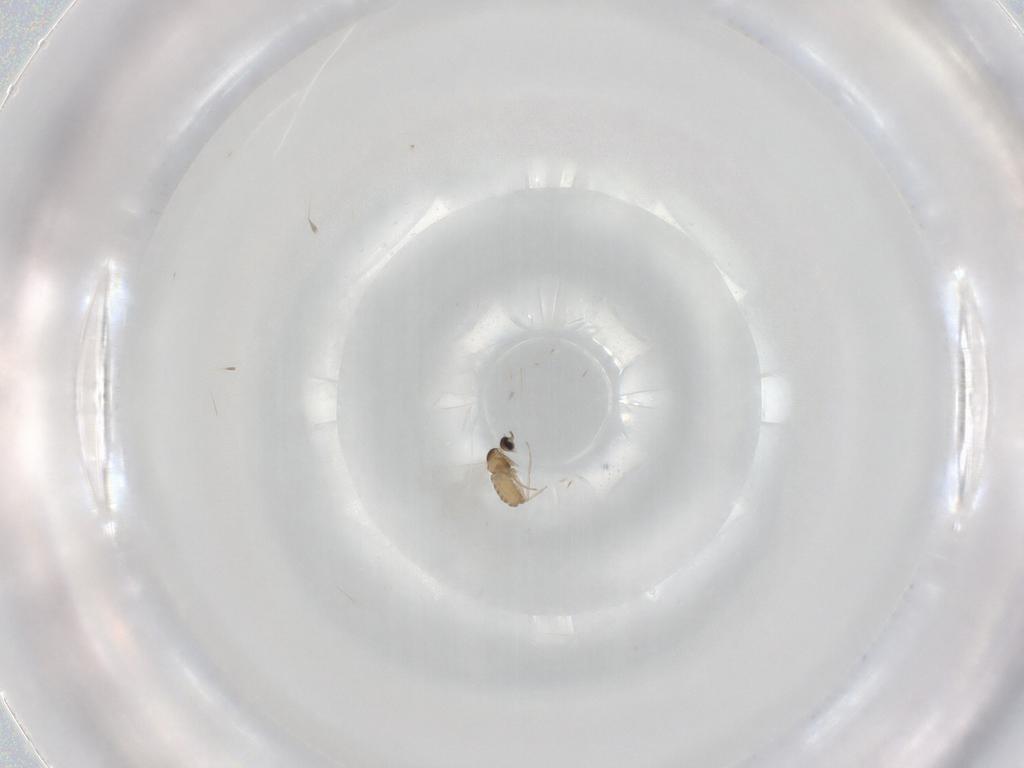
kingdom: Animalia
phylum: Arthropoda
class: Insecta
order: Diptera
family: Cecidomyiidae
